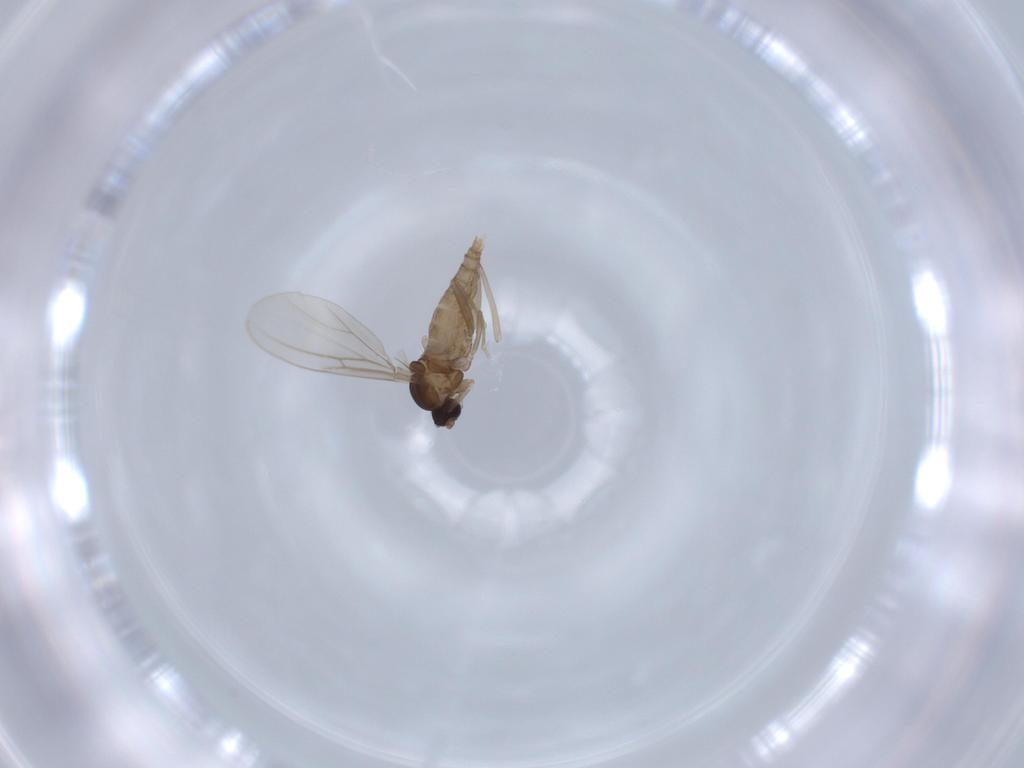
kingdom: Animalia
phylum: Arthropoda
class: Insecta
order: Diptera
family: Cecidomyiidae
